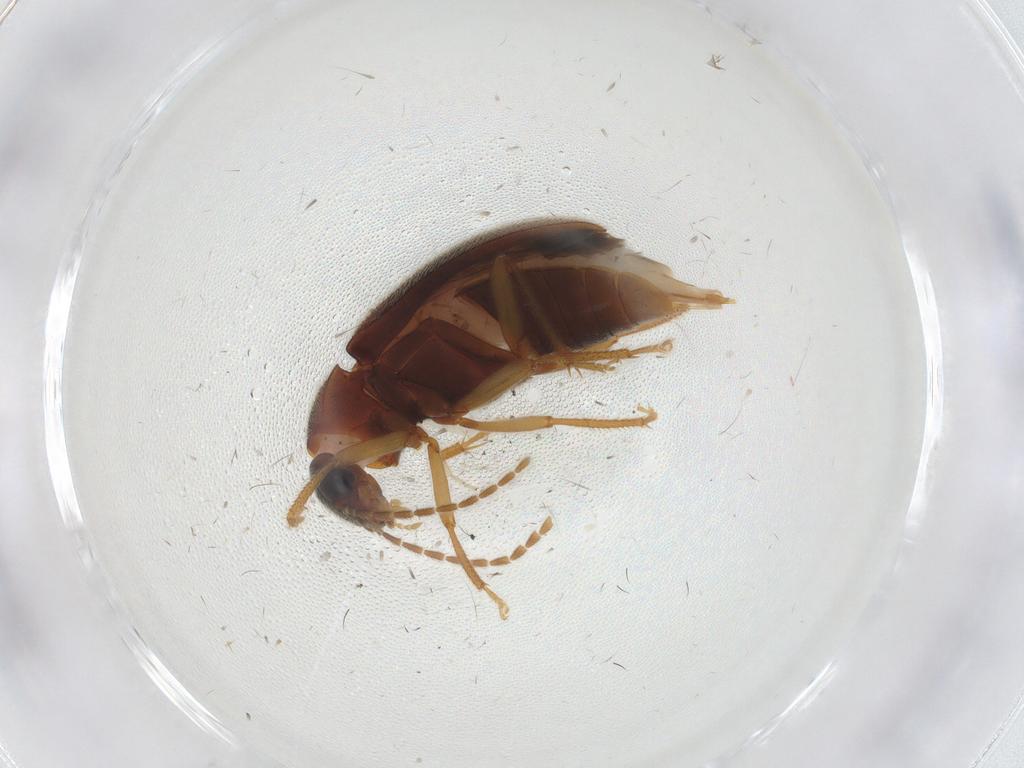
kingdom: Animalia
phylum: Arthropoda
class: Insecta
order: Coleoptera
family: Ptilodactylidae
